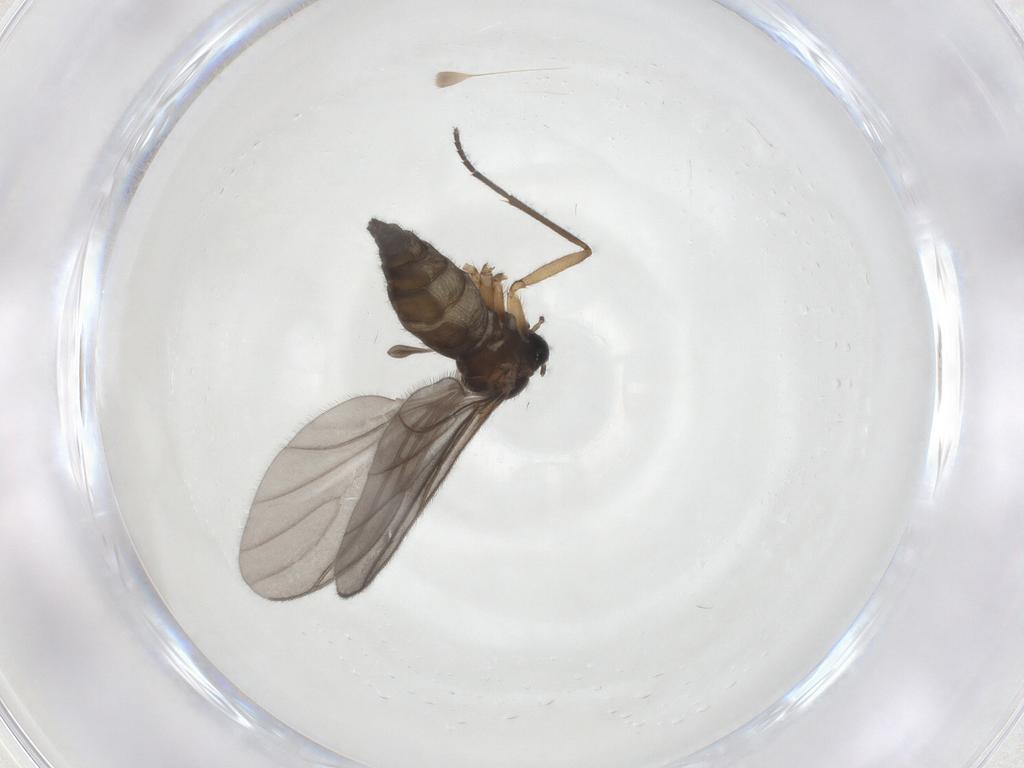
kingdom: Animalia
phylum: Arthropoda
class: Insecta
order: Diptera
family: Sciaridae
